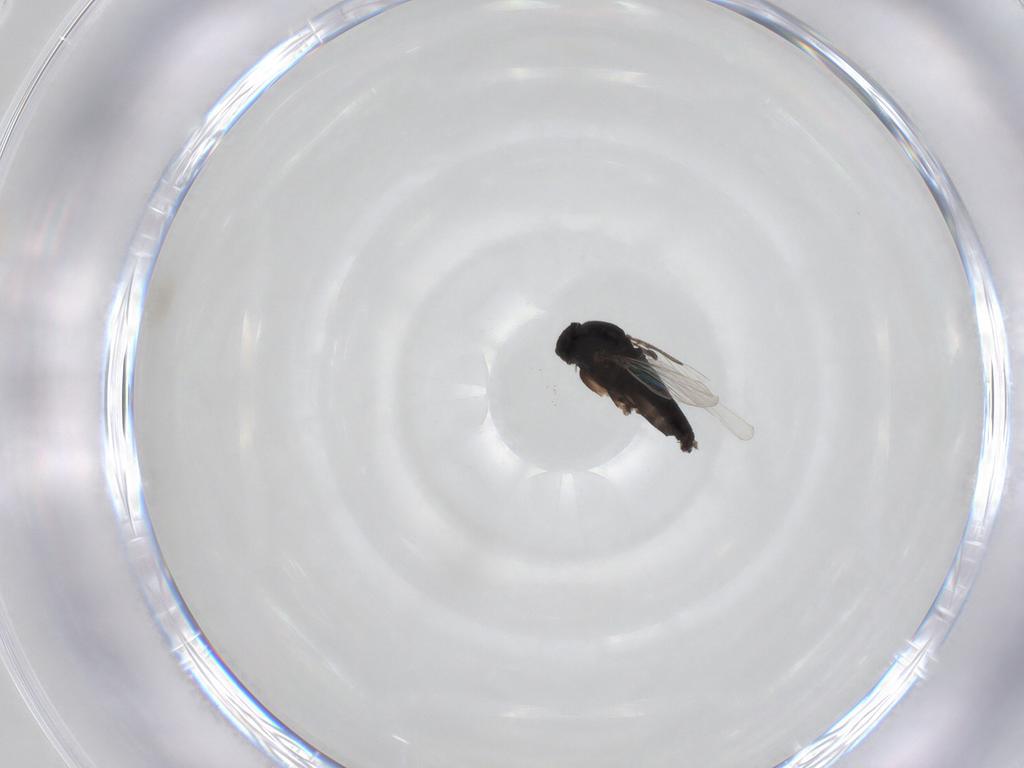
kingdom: Animalia
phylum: Arthropoda
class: Insecta
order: Diptera
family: Phoridae
